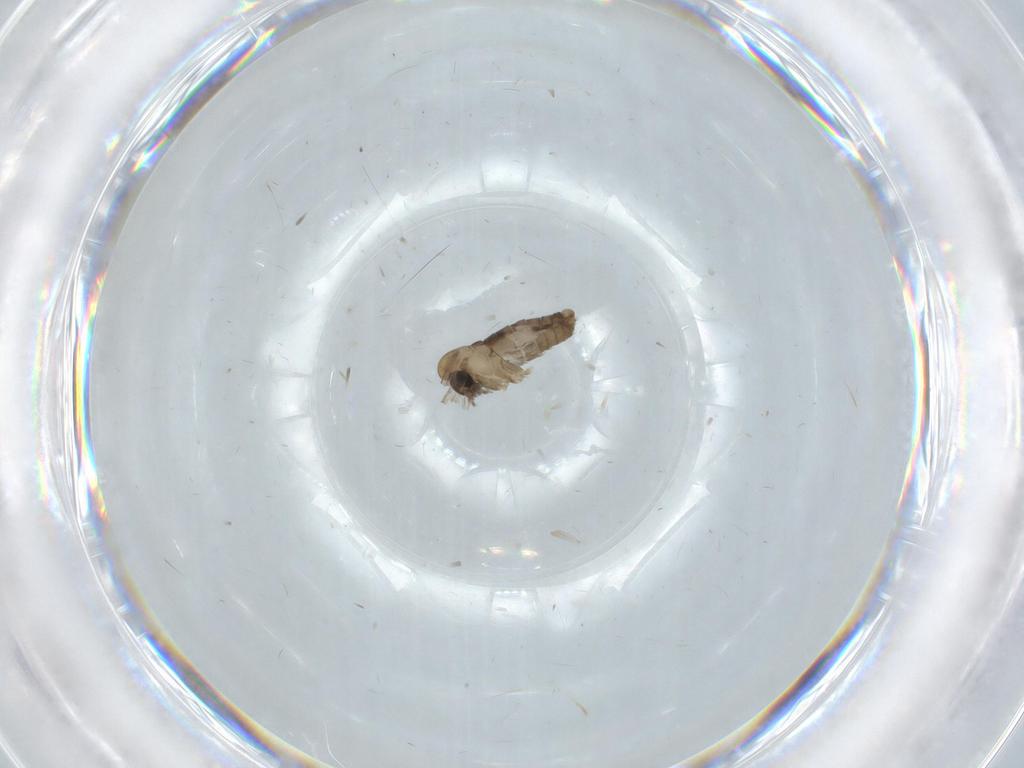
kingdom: Animalia
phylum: Arthropoda
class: Insecta
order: Diptera
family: Psychodidae
